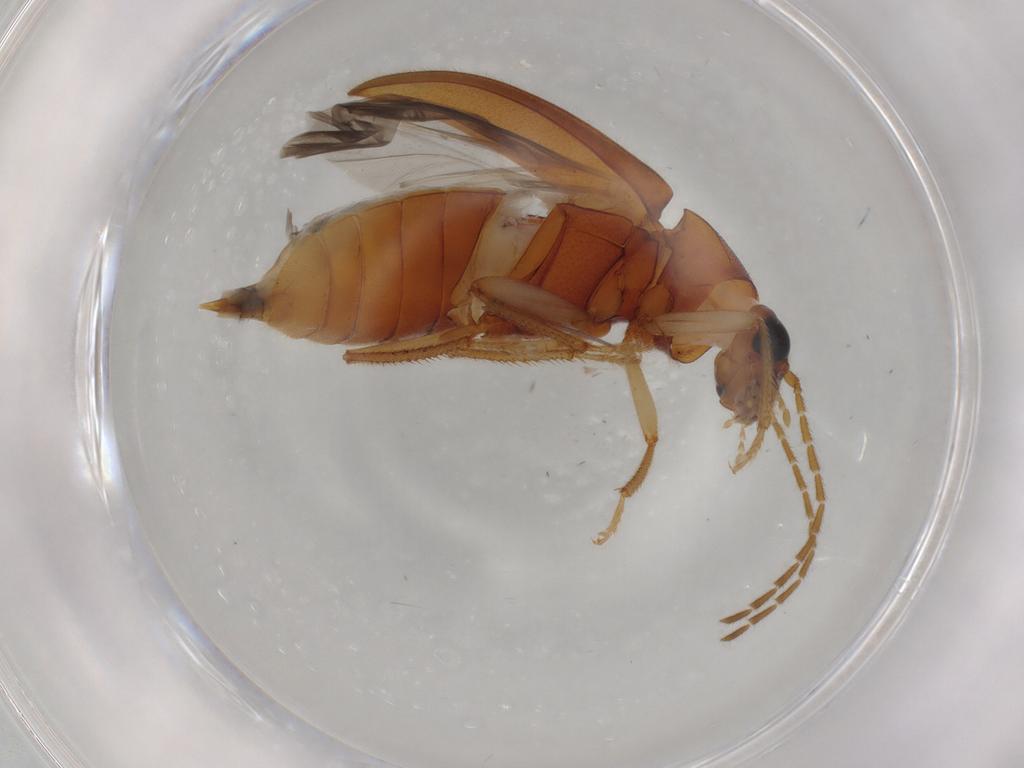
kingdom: Animalia
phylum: Arthropoda
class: Insecta
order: Coleoptera
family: Ptilodactylidae
